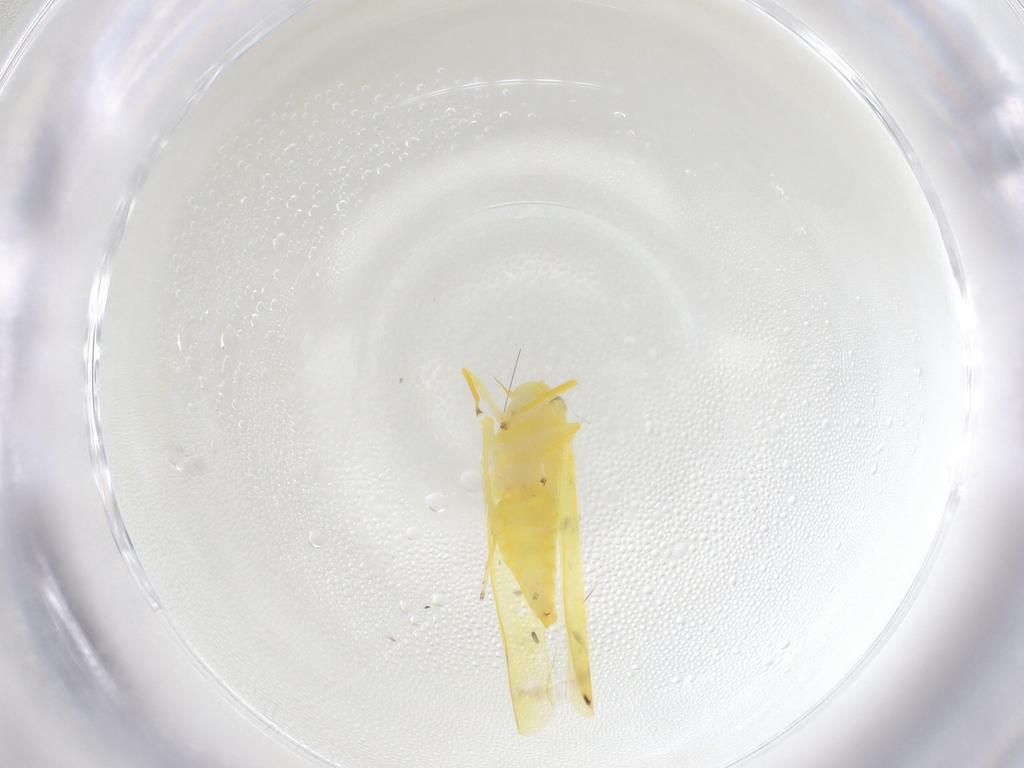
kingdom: Animalia
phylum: Arthropoda
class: Insecta
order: Hemiptera
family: Cicadellidae
